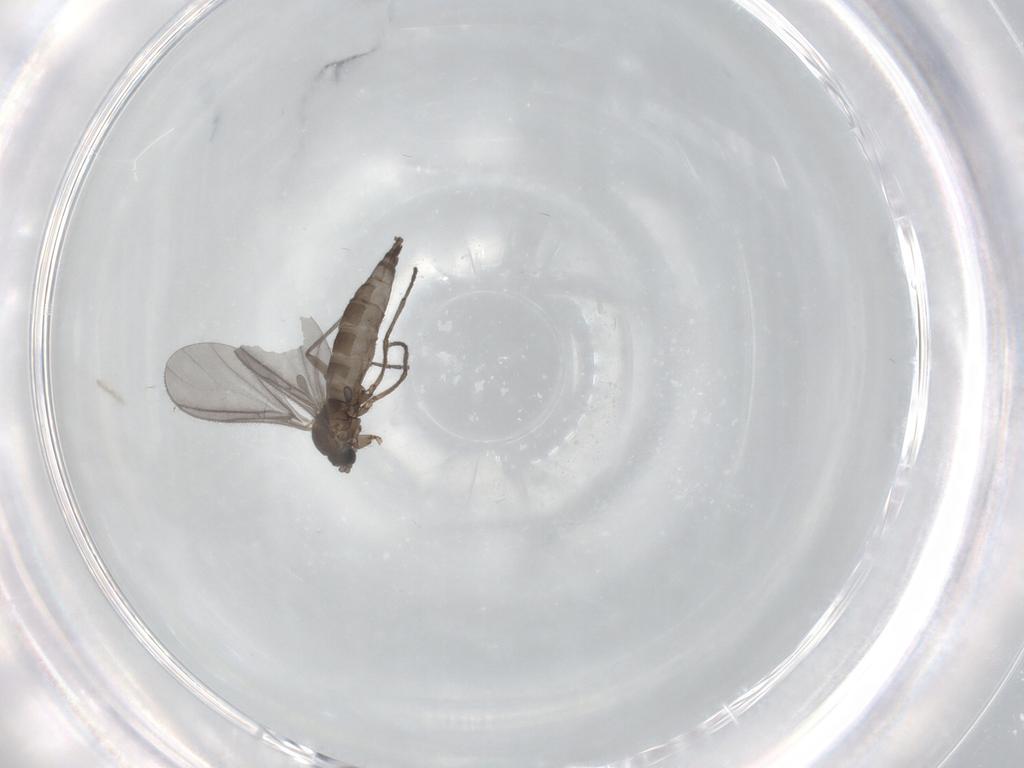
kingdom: Animalia
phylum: Arthropoda
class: Insecta
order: Diptera
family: Sciaridae
